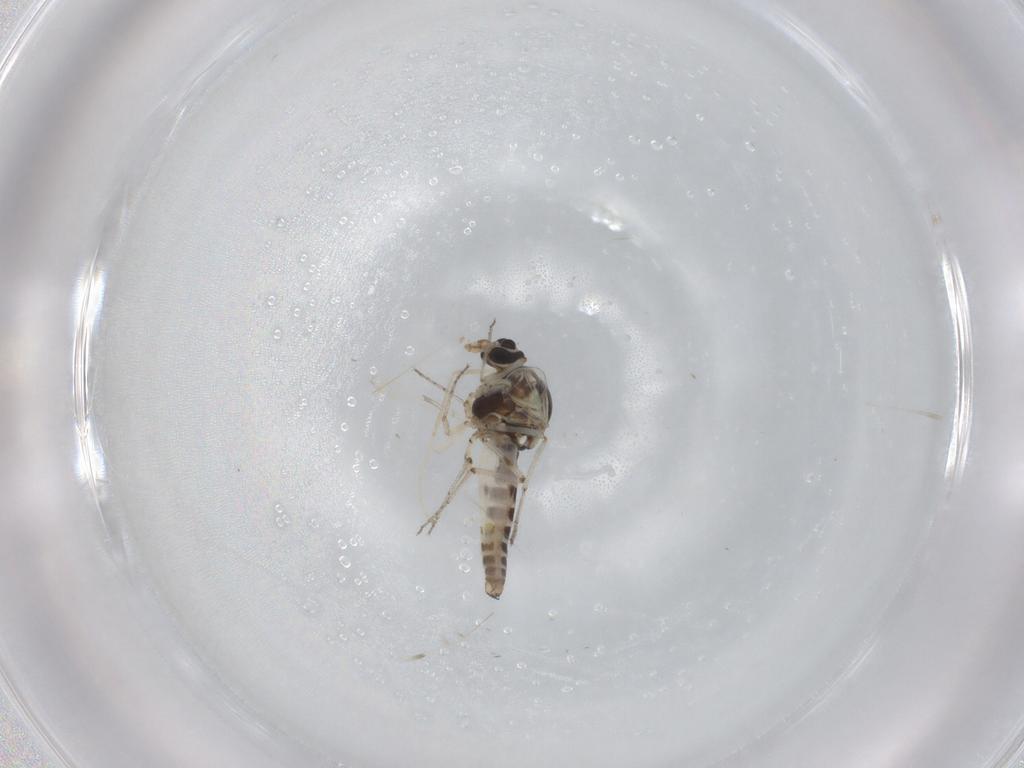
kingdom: Animalia
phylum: Arthropoda
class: Insecta
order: Diptera
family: Ceratopogonidae
